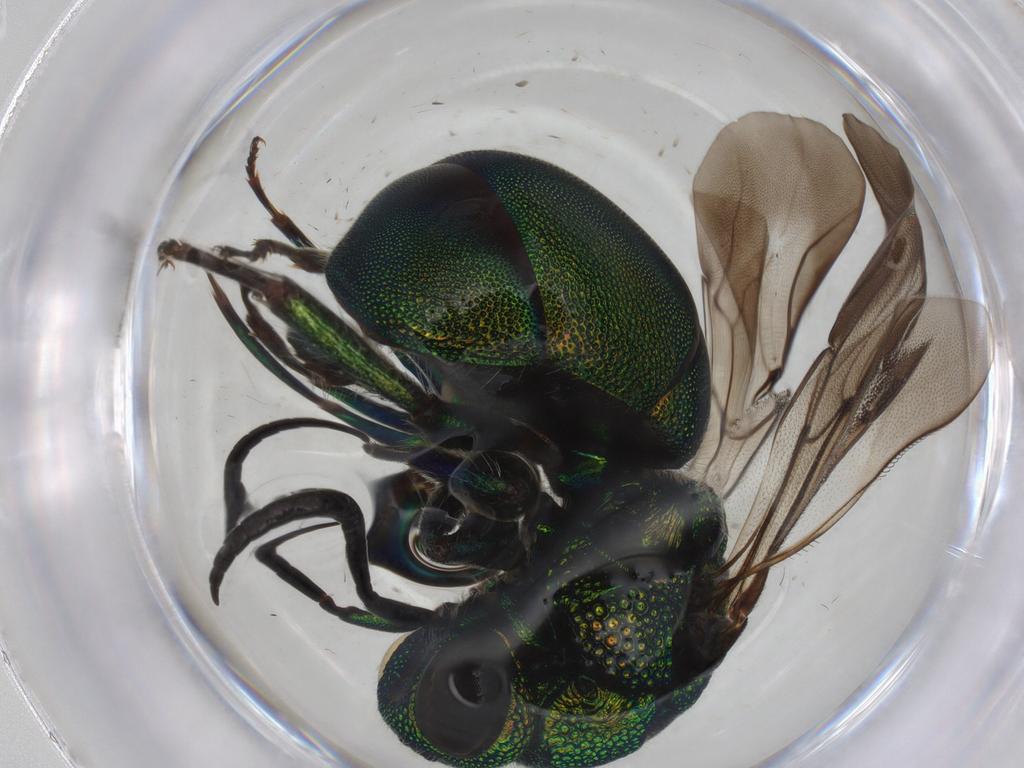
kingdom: Animalia
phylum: Arthropoda
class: Insecta
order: Hymenoptera
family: Chrysididae
